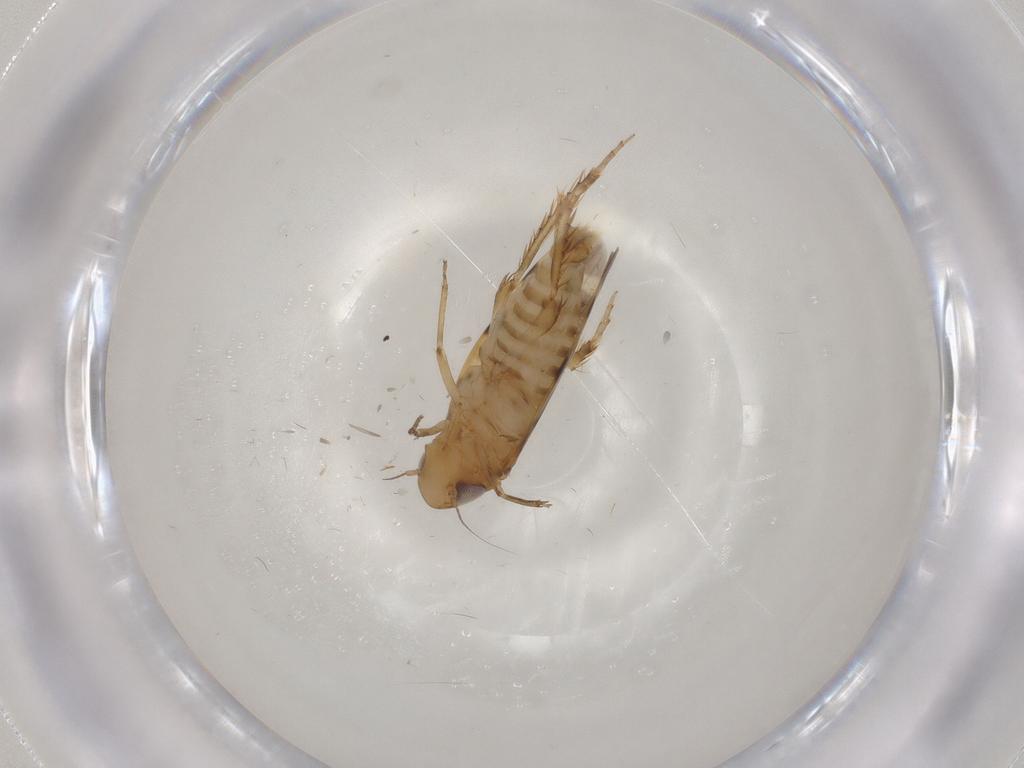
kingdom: Animalia
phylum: Arthropoda
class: Insecta
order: Hemiptera
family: Cicadellidae
